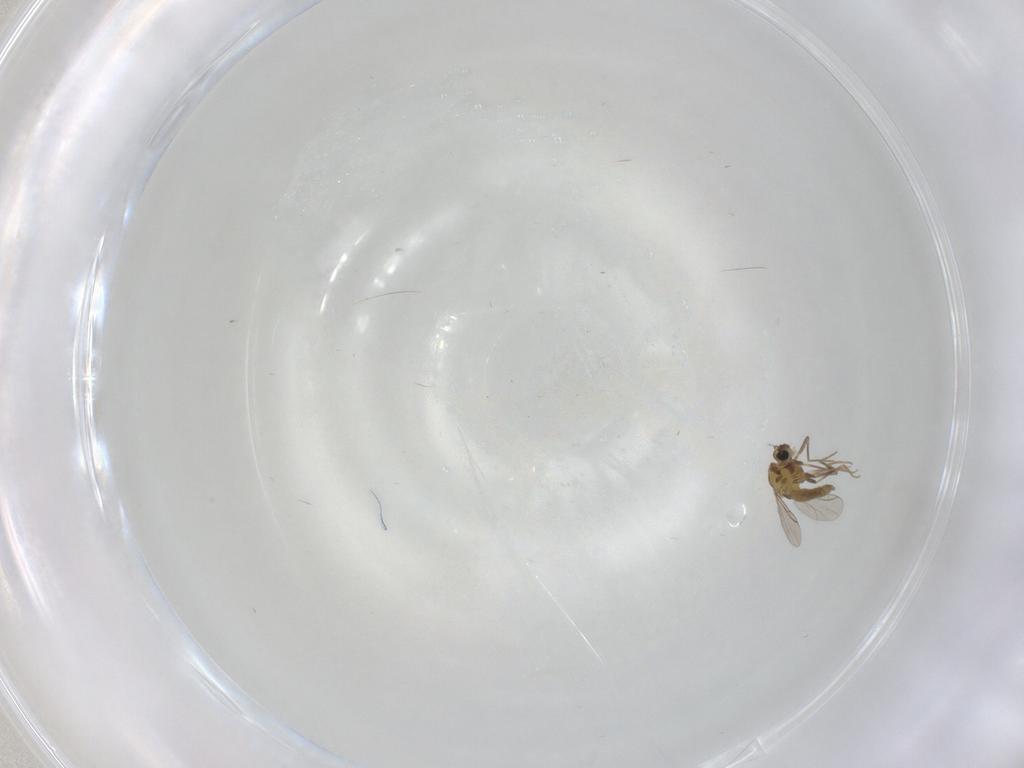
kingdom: Animalia
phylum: Arthropoda
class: Insecta
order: Diptera
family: Chironomidae
